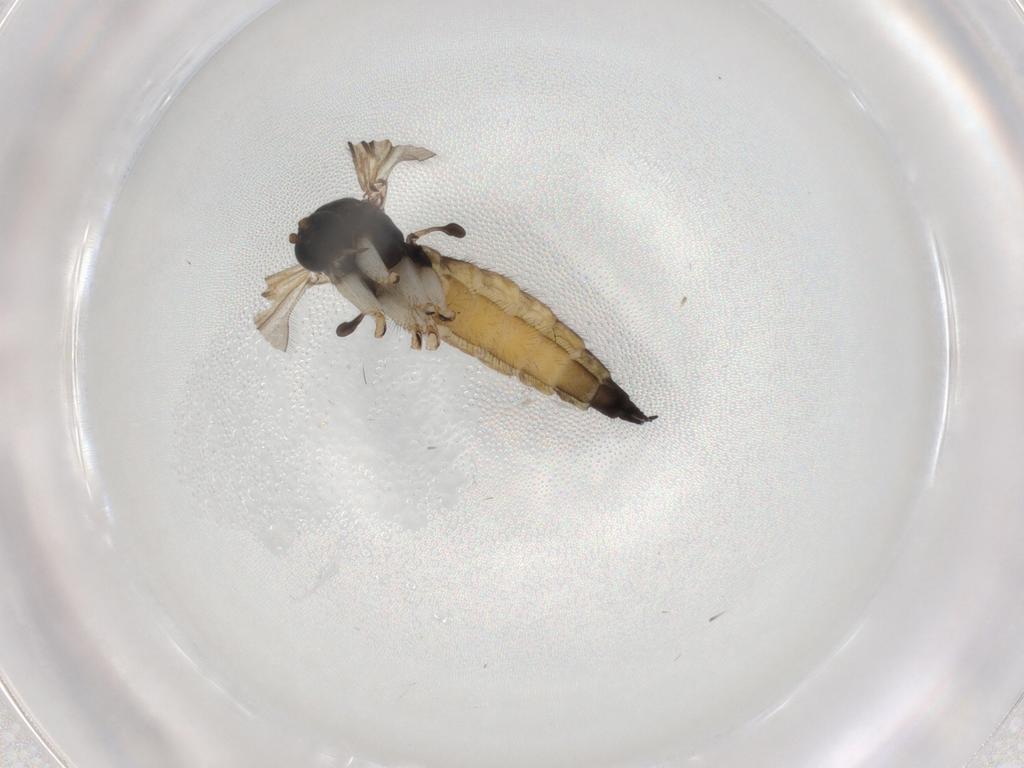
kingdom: Animalia
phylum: Arthropoda
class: Insecta
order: Diptera
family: Sciaridae
